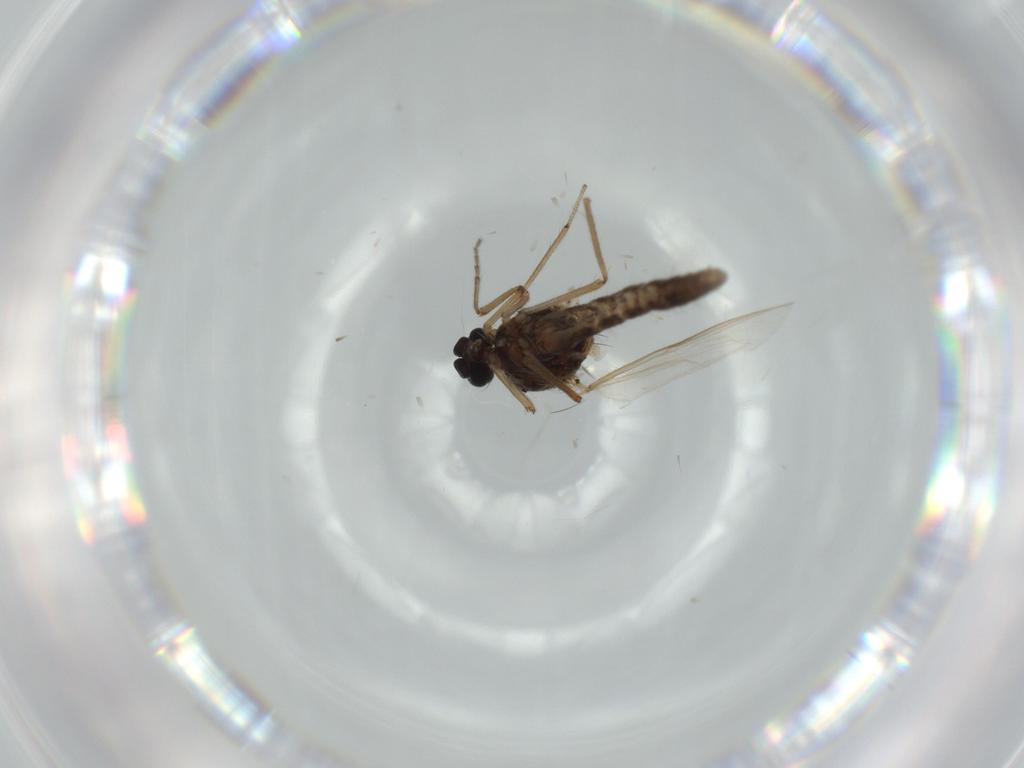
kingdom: Animalia
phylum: Arthropoda
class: Insecta
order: Diptera
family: Ceratopogonidae
